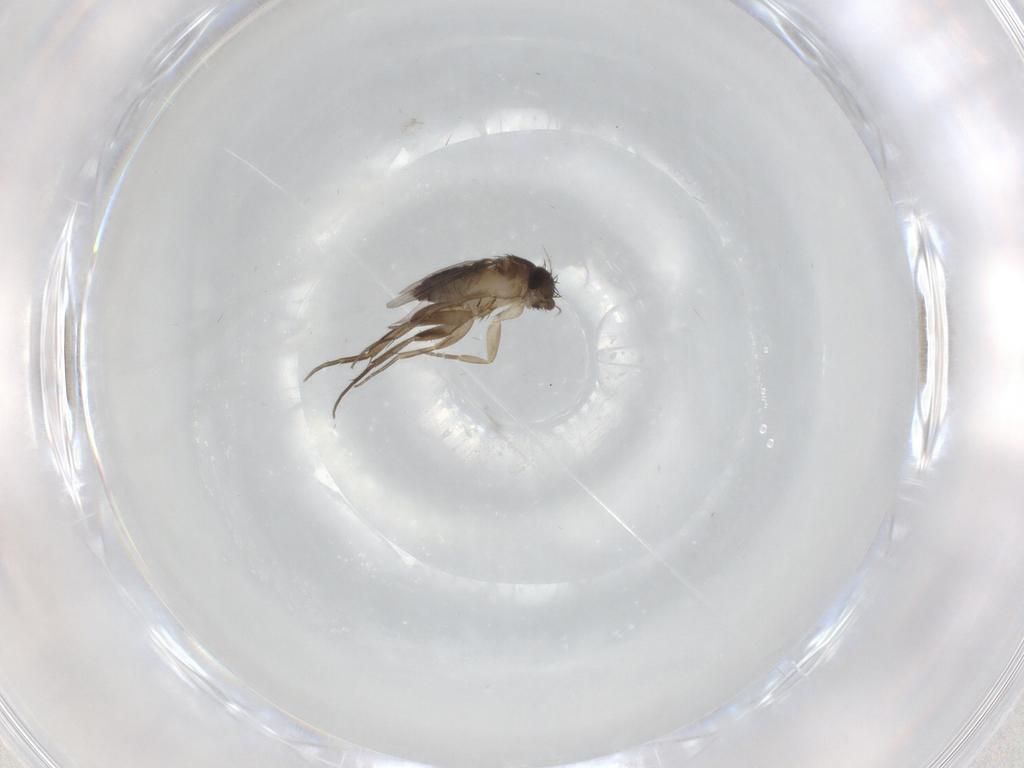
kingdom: Animalia
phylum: Arthropoda
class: Insecta
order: Diptera
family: Phoridae
